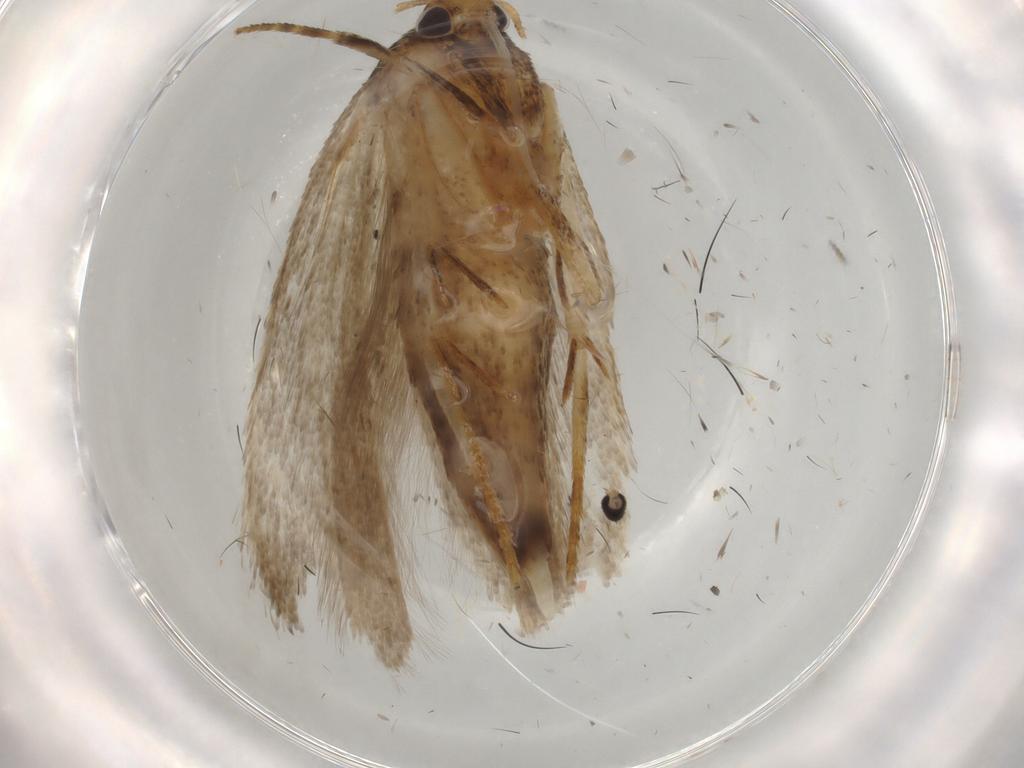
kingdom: Animalia
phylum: Arthropoda
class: Insecta
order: Lepidoptera
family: Gelechiidae
